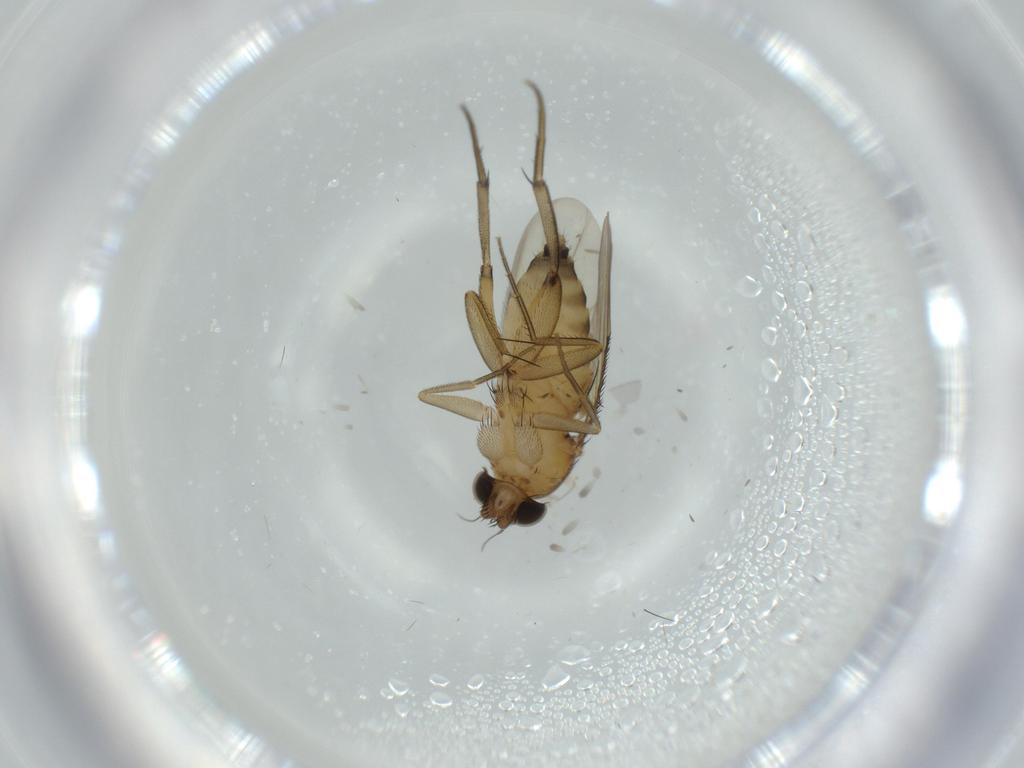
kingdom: Animalia
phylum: Arthropoda
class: Insecta
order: Diptera
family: Phoridae
